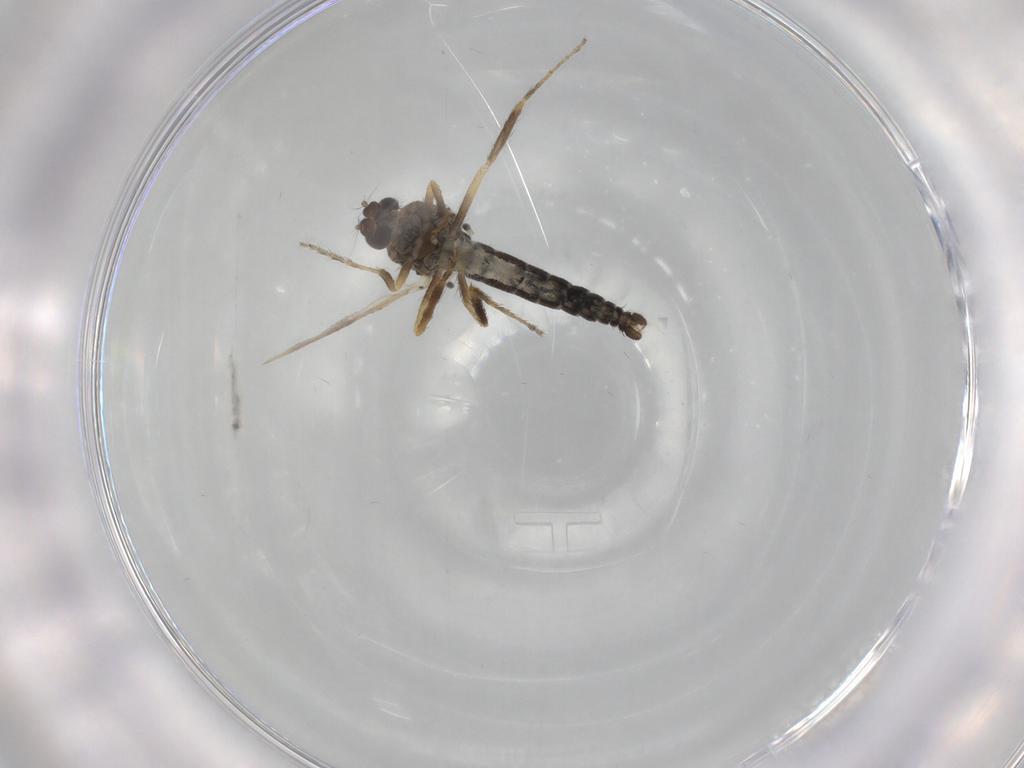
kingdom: Animalia
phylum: Arthropoda
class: Insecta
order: Diptera
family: Ceratopogonidae
